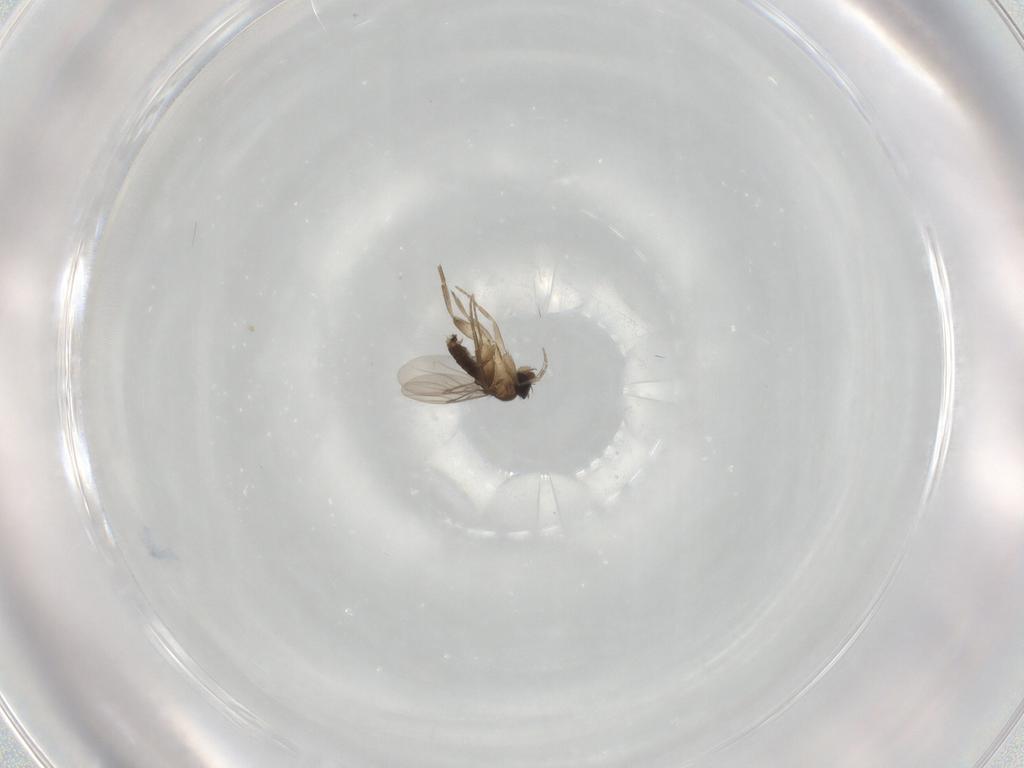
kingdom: Animalia
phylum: Arthropoda
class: Insecta
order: Diptera
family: Phoridae
